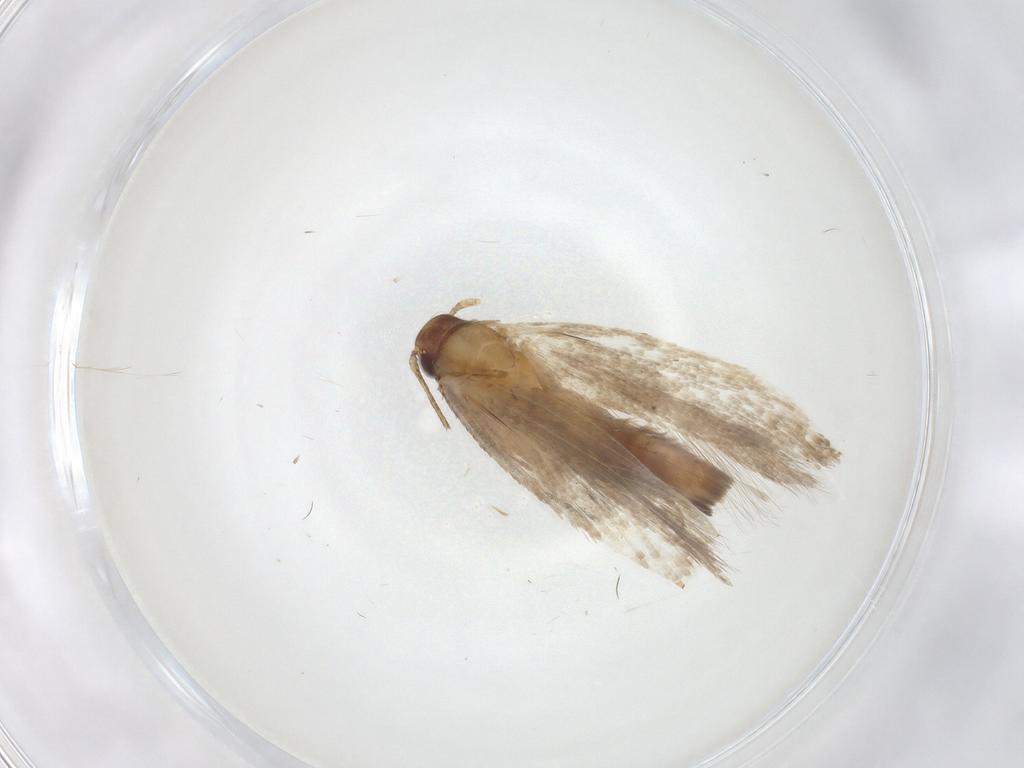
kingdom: Animalia
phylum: Arthropoda
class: Insecta
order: Lepidoptera
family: Gelechiidae
